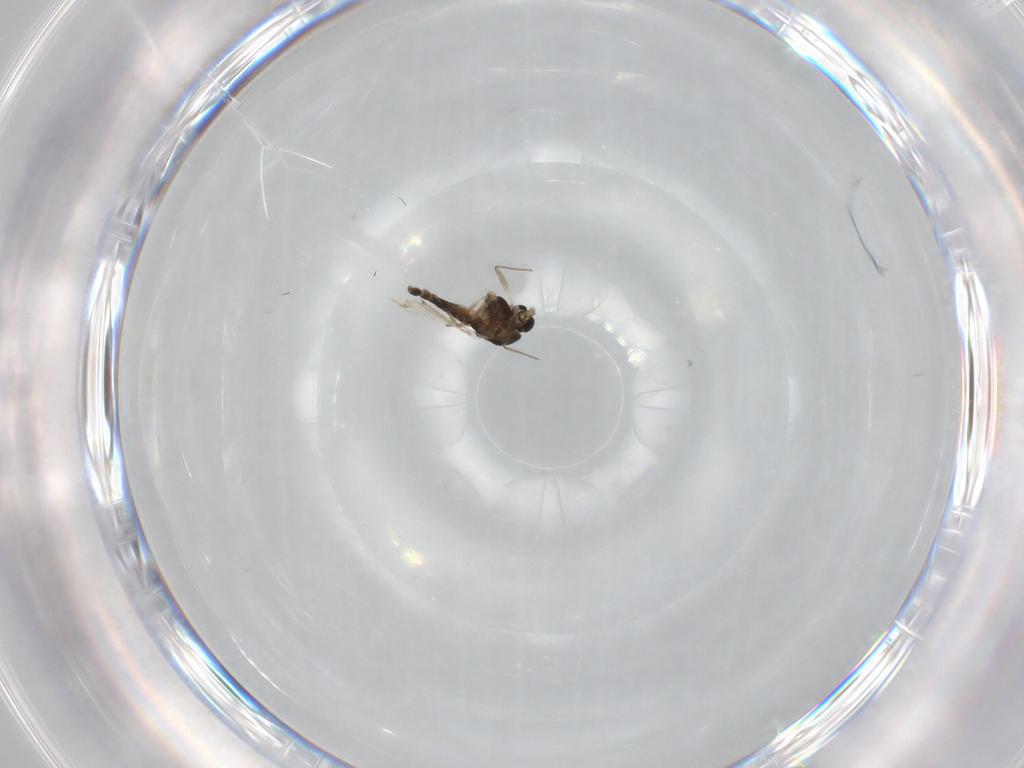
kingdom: Animalia
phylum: Arthropoda
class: Insecta
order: Diptera
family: Chironomidae
